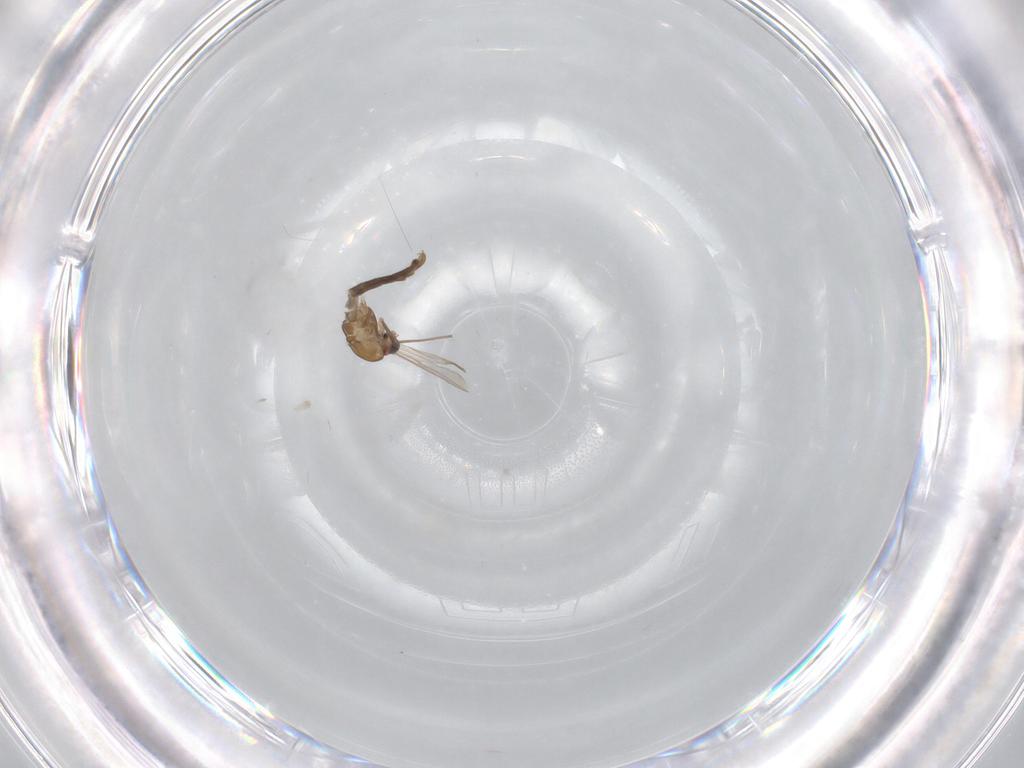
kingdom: Animalia
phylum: Arthropoda
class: Insecta
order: Diptera
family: Chironomidae
